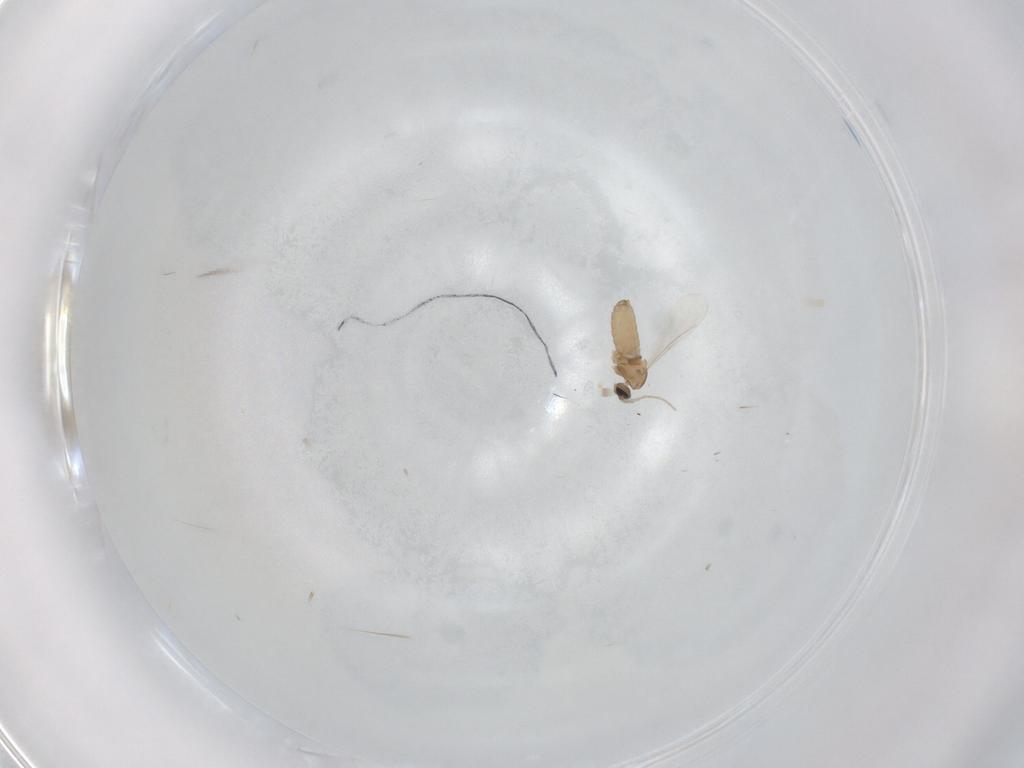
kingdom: Animalia
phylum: Arthropoda
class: Insecta
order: Diptera
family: Cecidomyiidae
